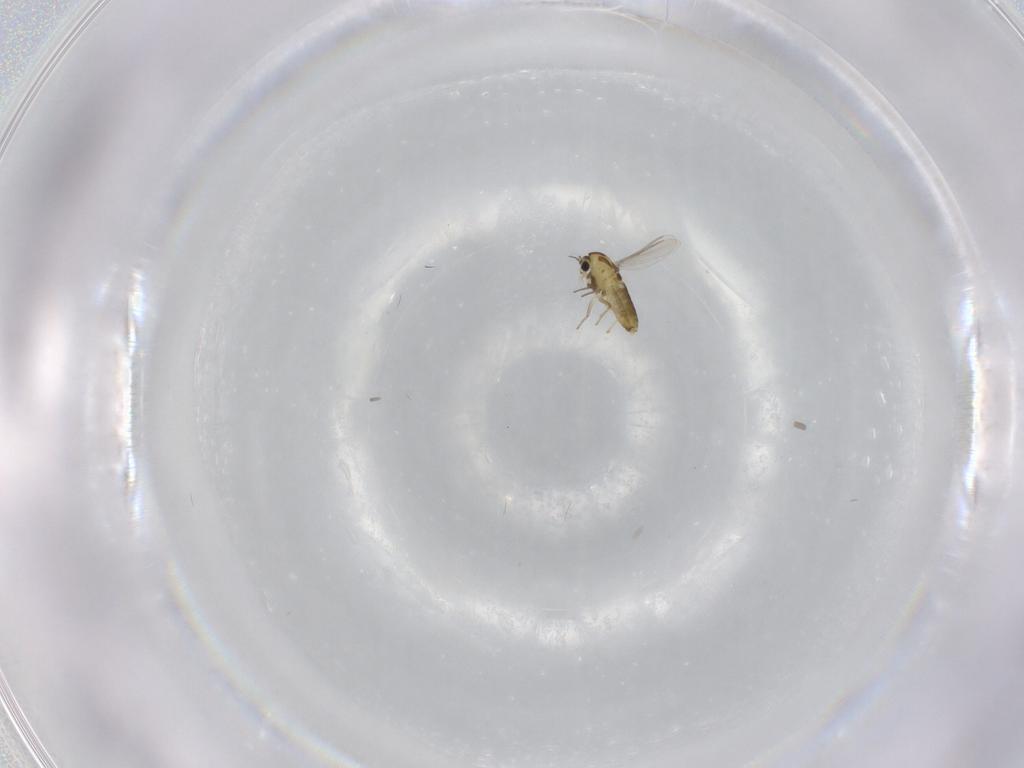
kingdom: Animalia
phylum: Arthropoda
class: Insecta
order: Diptera
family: Chironomidae
